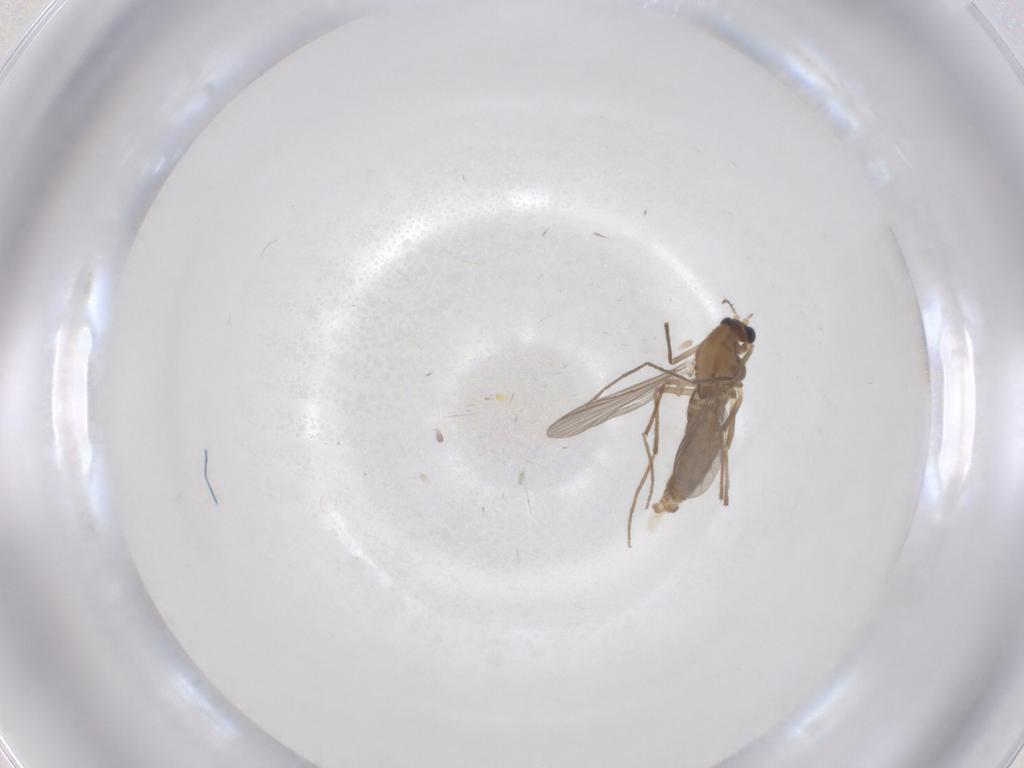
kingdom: Animalia
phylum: Arthropoda
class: Insecta
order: Diptera
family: Chironomidae
